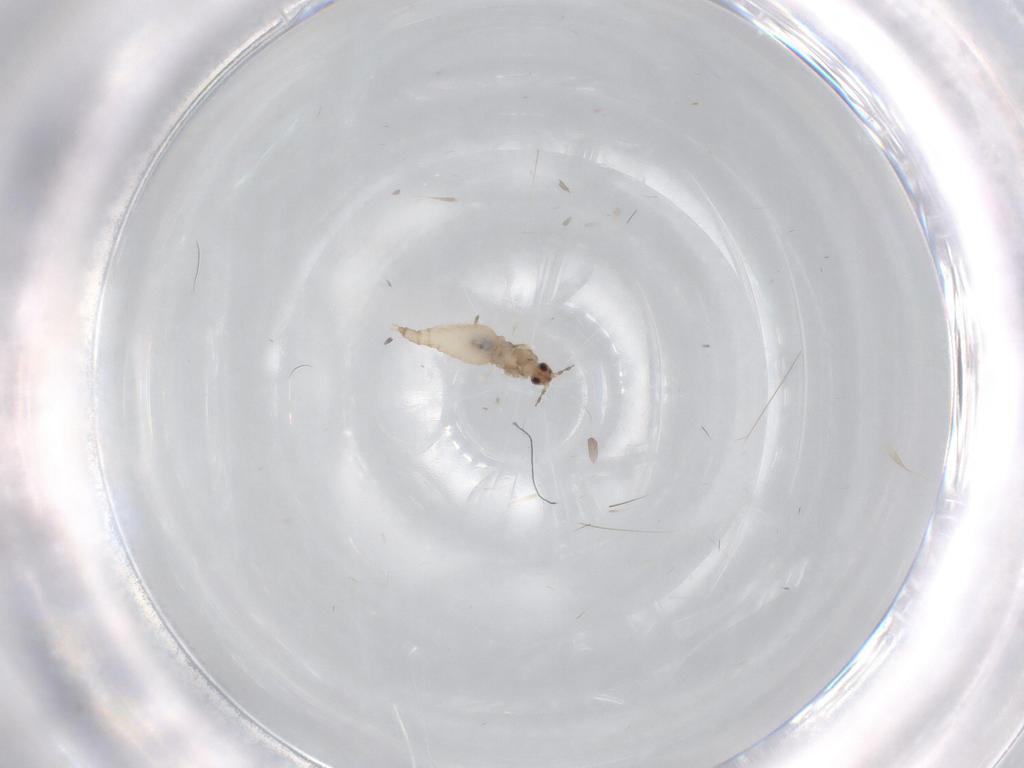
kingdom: Animalia
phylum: Arthropoda
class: Insecta
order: Diptera
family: Cecidomyiidae
